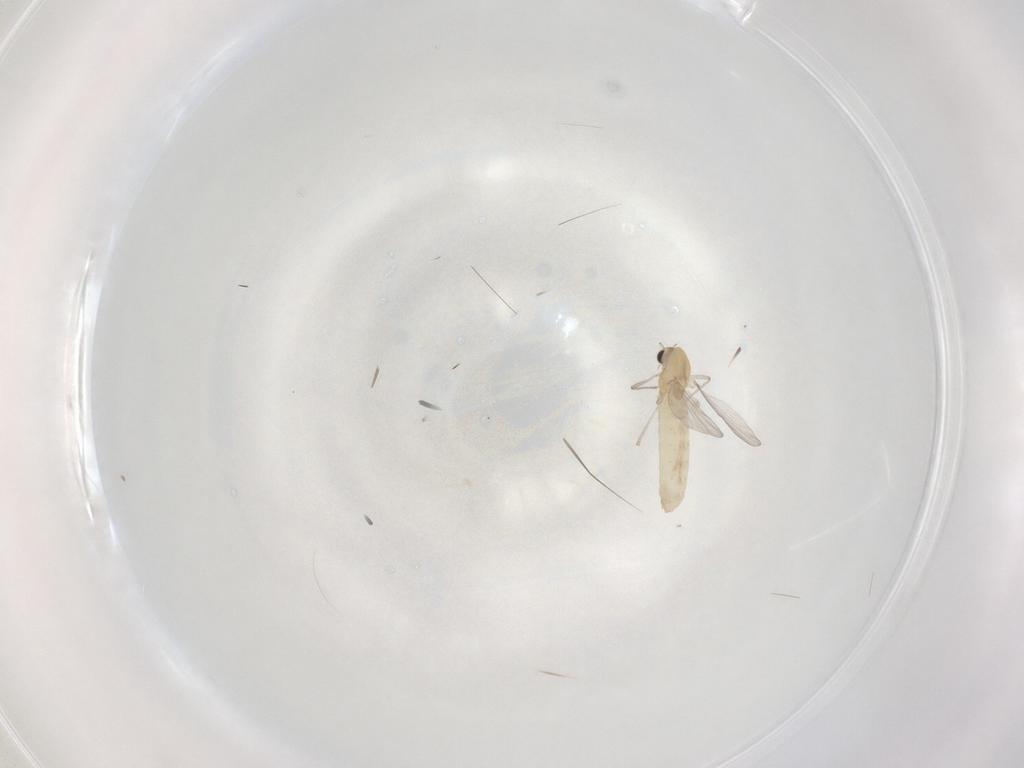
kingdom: Animalia
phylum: Arthropoda
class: Insecta
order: Diptera
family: Chironomidae
